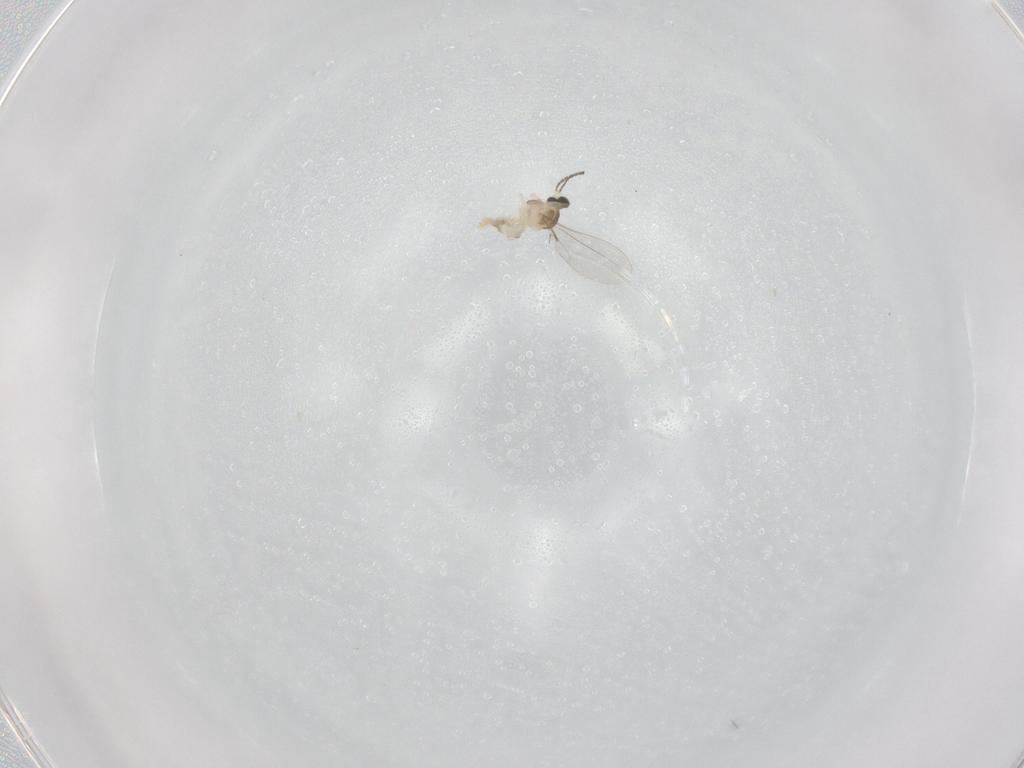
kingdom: Animalia
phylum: Arthropoda
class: Insecta
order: Diptera
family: Cecidomyiidae
